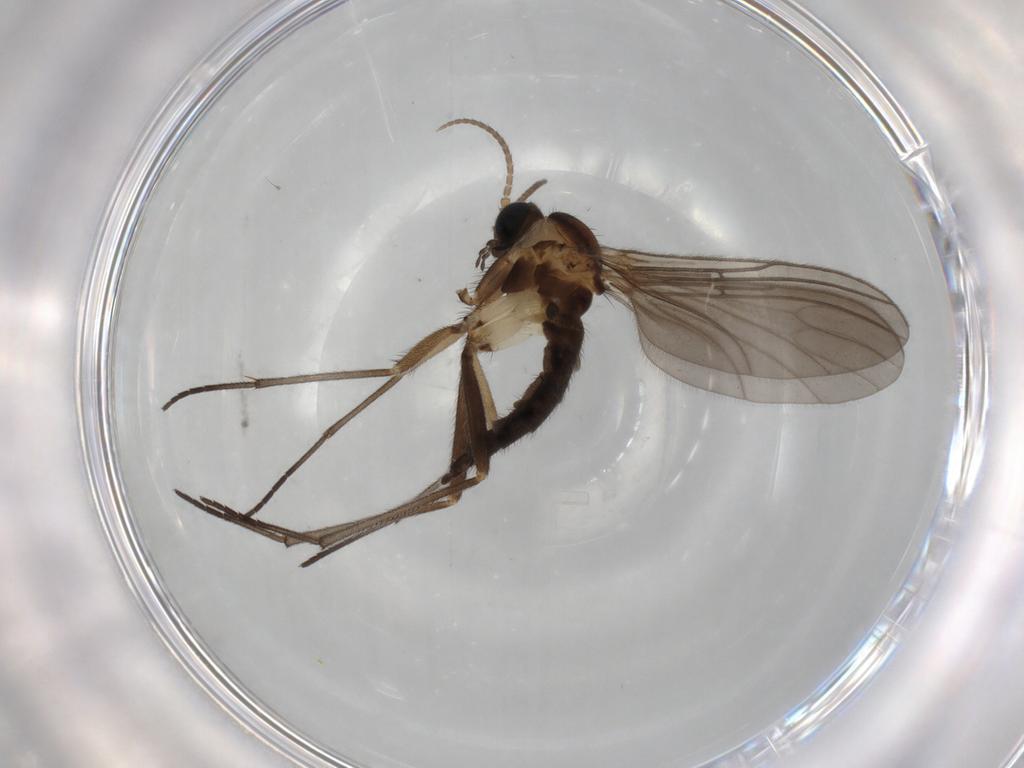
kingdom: Animalia
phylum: Arthropoda
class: Insecta
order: Diptera
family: Sciaridae
